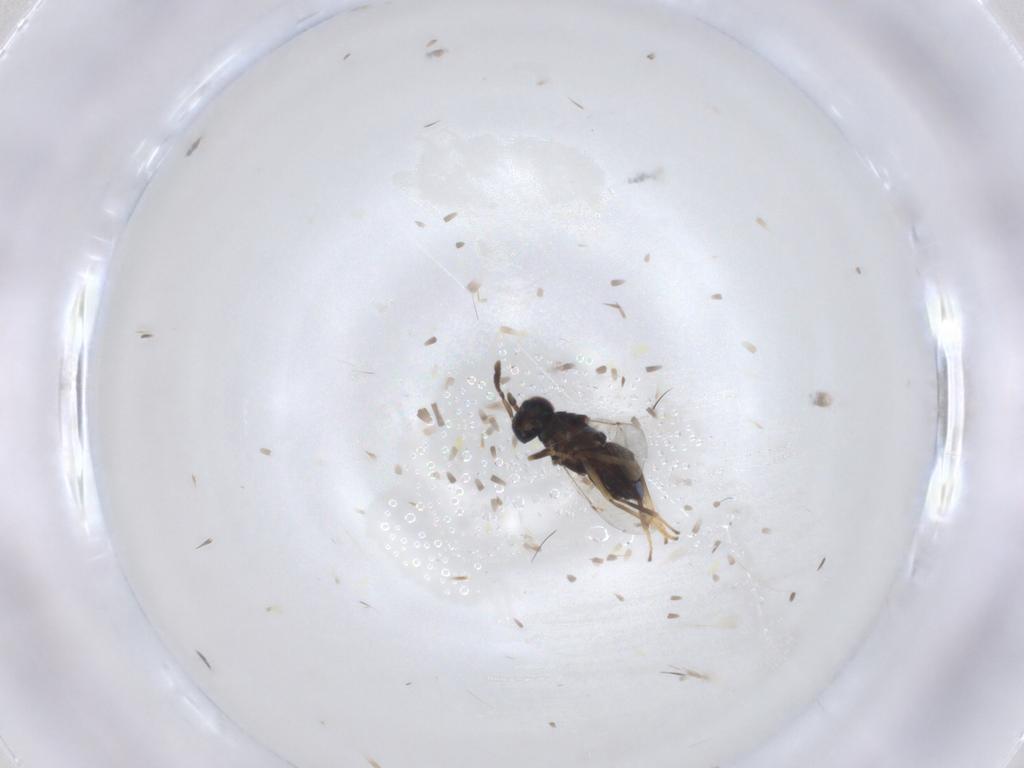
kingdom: Animalia
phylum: Arthropoda
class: Insecta
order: Hymenoptera
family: Encyrtidae
